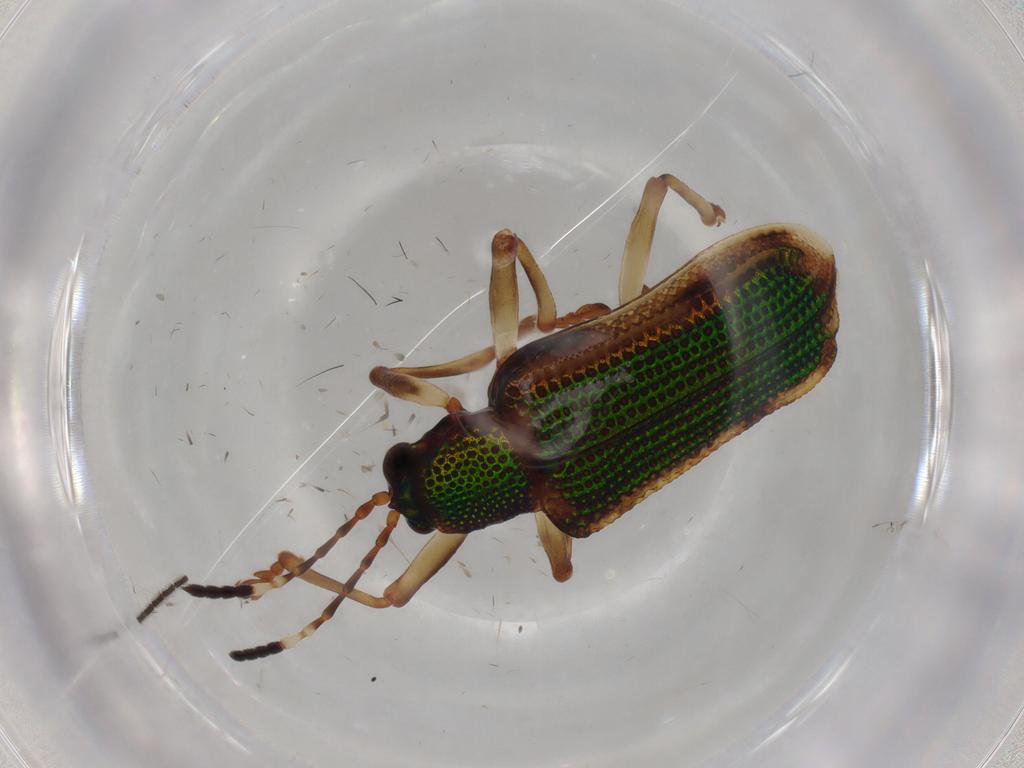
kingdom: Animalia
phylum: Arthropoda
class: Insecta
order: Coleoptera
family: Chrysomelidae
